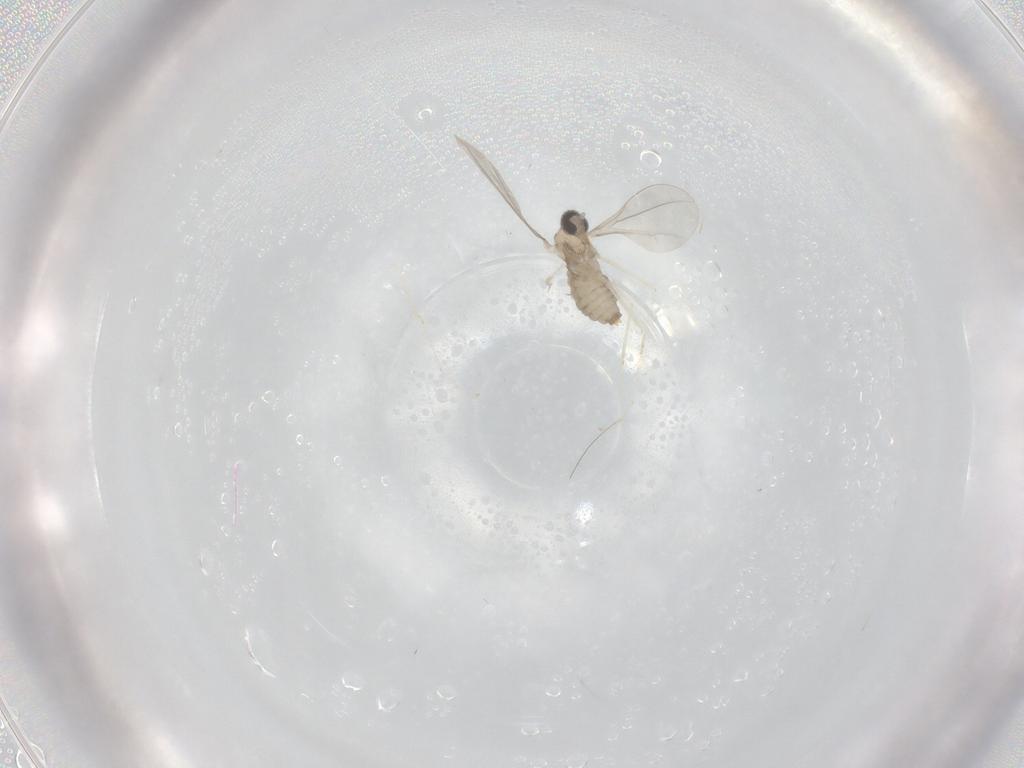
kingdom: Animalia
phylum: Arthropoda
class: Insecta
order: Diptera
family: Cecidomyiidae
